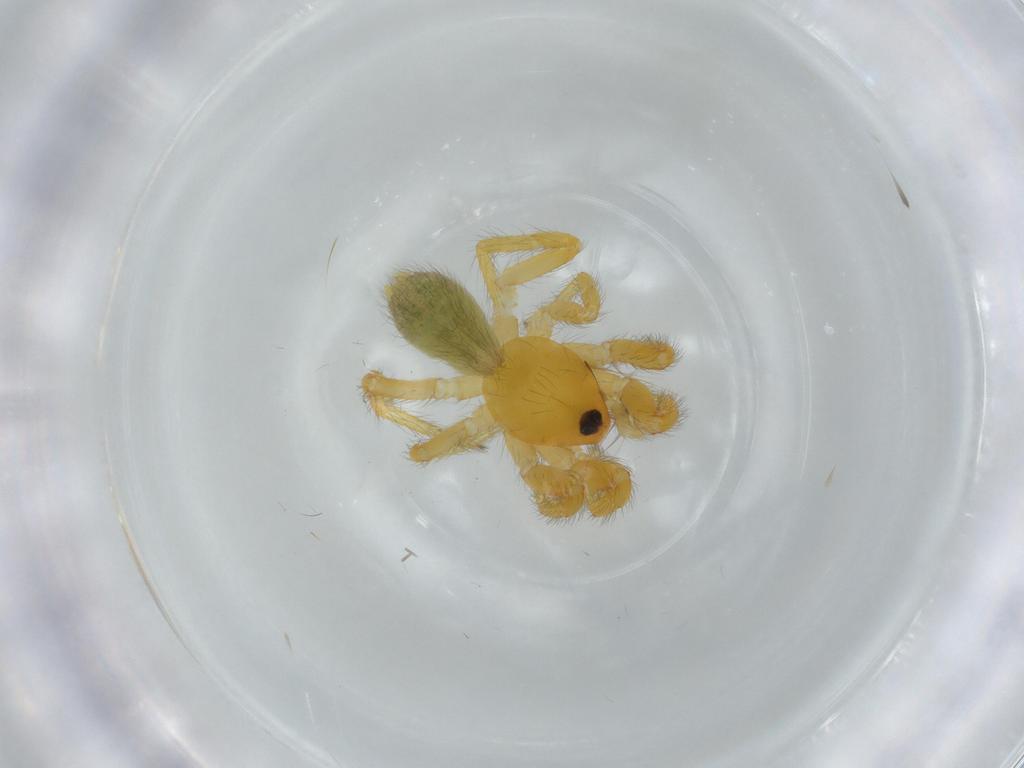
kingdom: Animalia
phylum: Arthropoda
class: Arachnida
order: Araneae
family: Caponiidae
